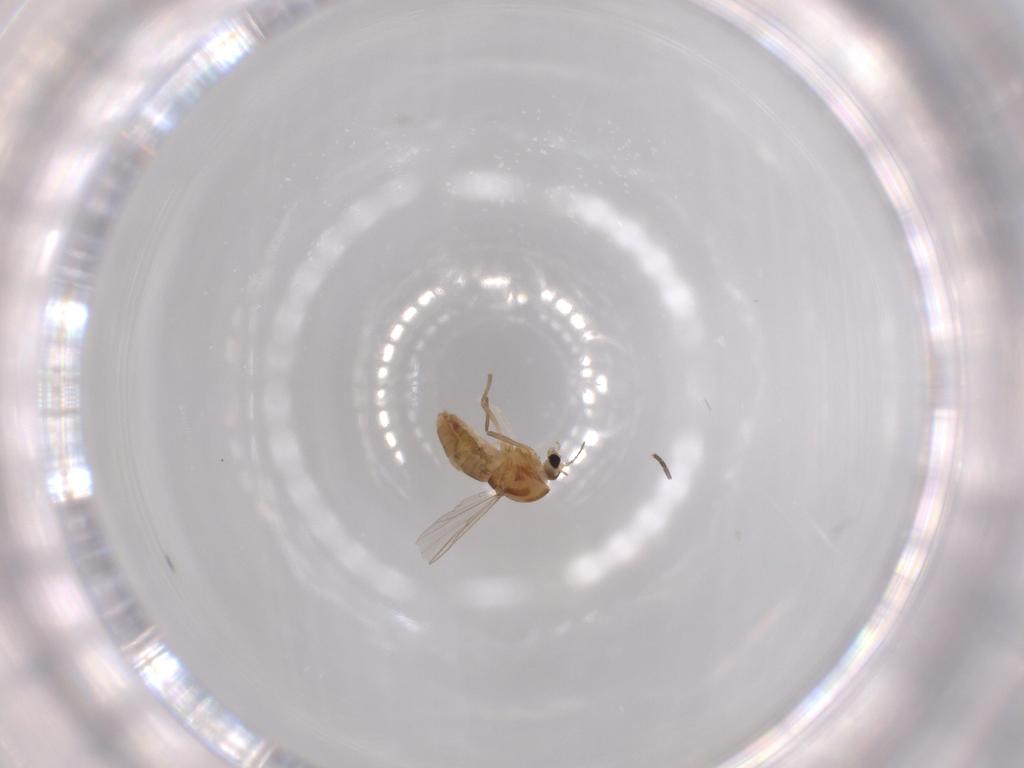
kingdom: Animalia
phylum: Arthropoda
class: Insecta
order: Diptera
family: Chironomidae
